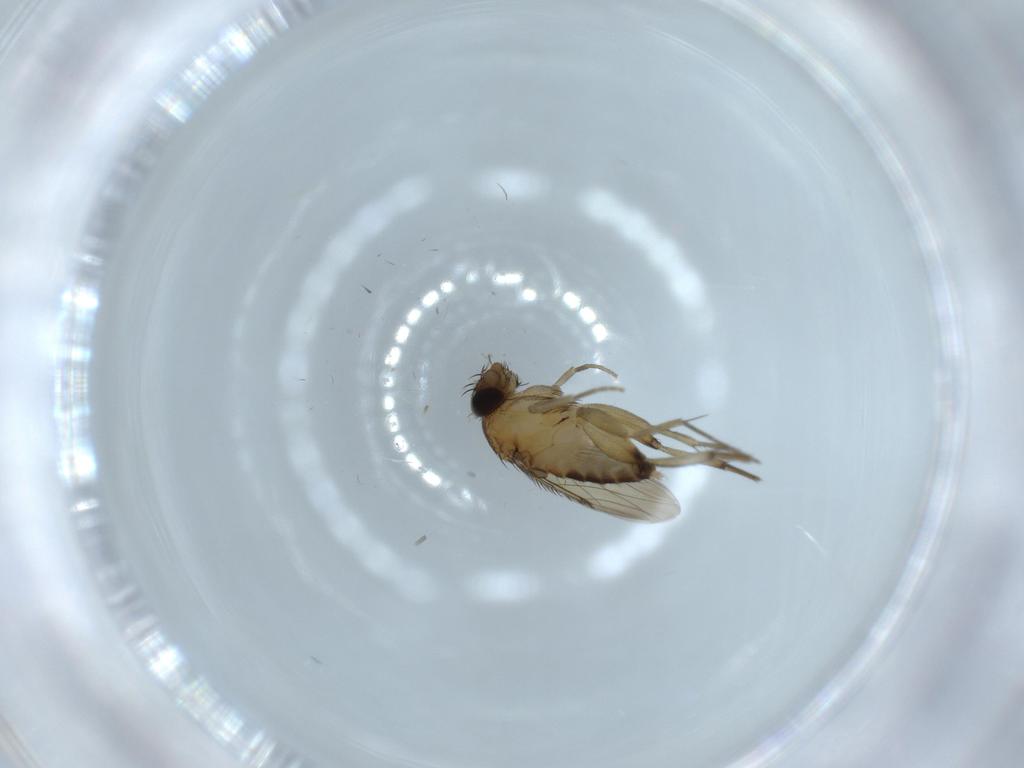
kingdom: Animalia
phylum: Arthropoda
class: Insecta
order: Diptera
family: Phoridae
